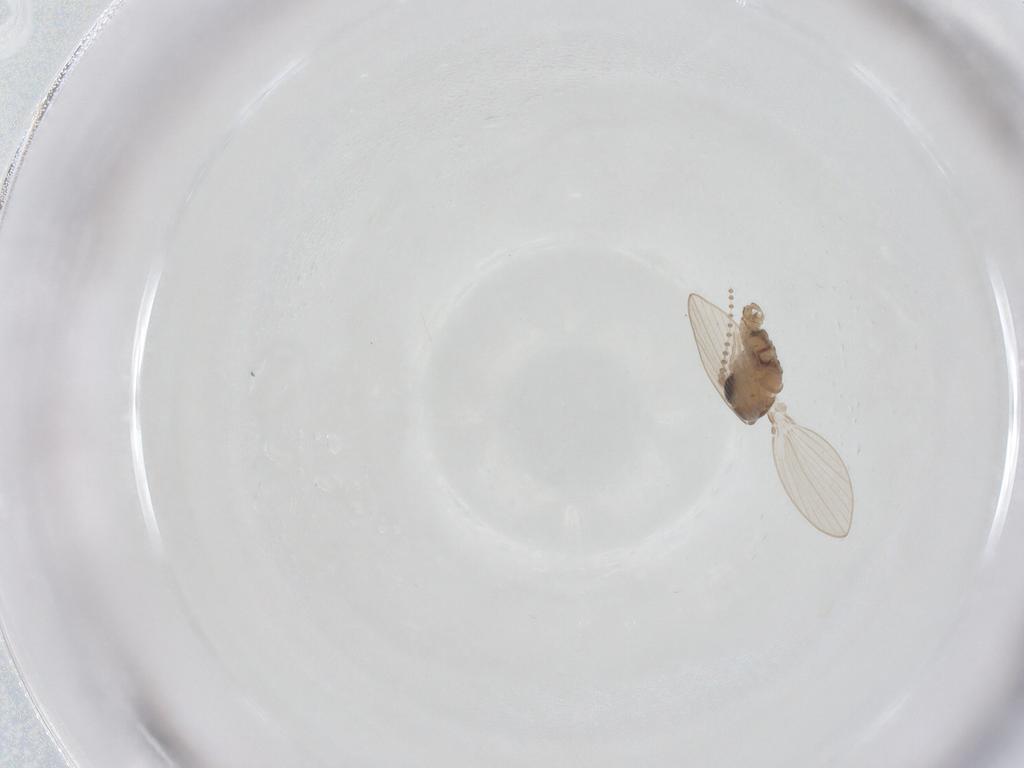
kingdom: Animalia
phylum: Arthropoda
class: Insecta
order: Diptera
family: Psychodidae
